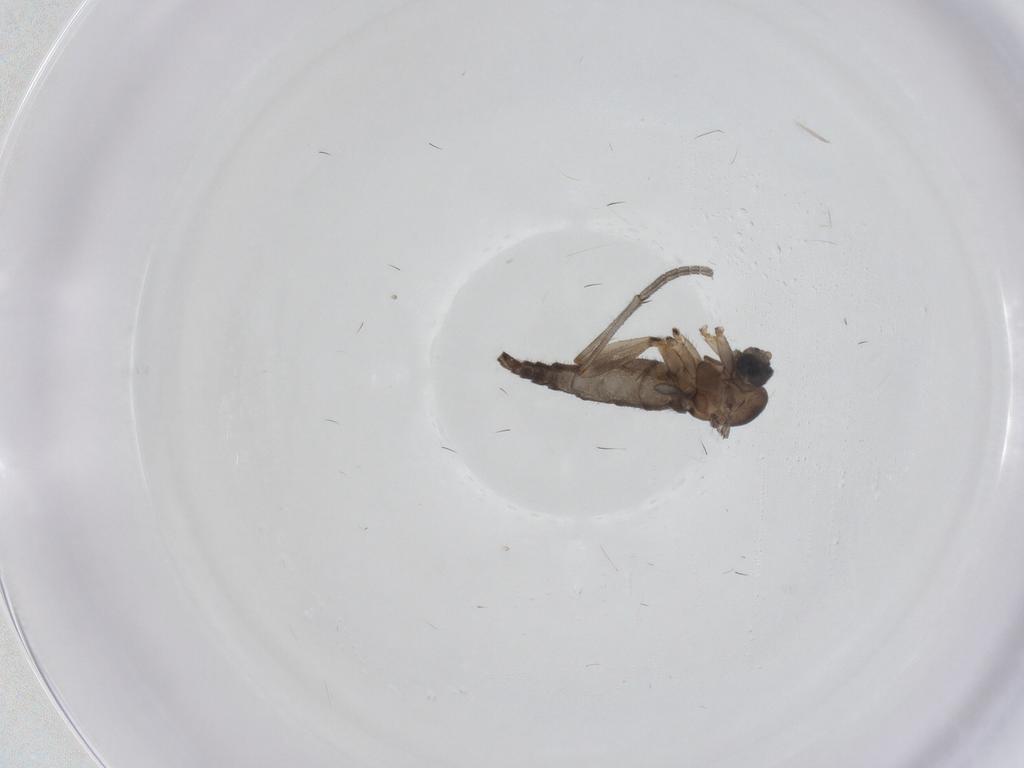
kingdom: Animalia
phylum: Arthropoda
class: Insecta
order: Diptera
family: Sciaridae
